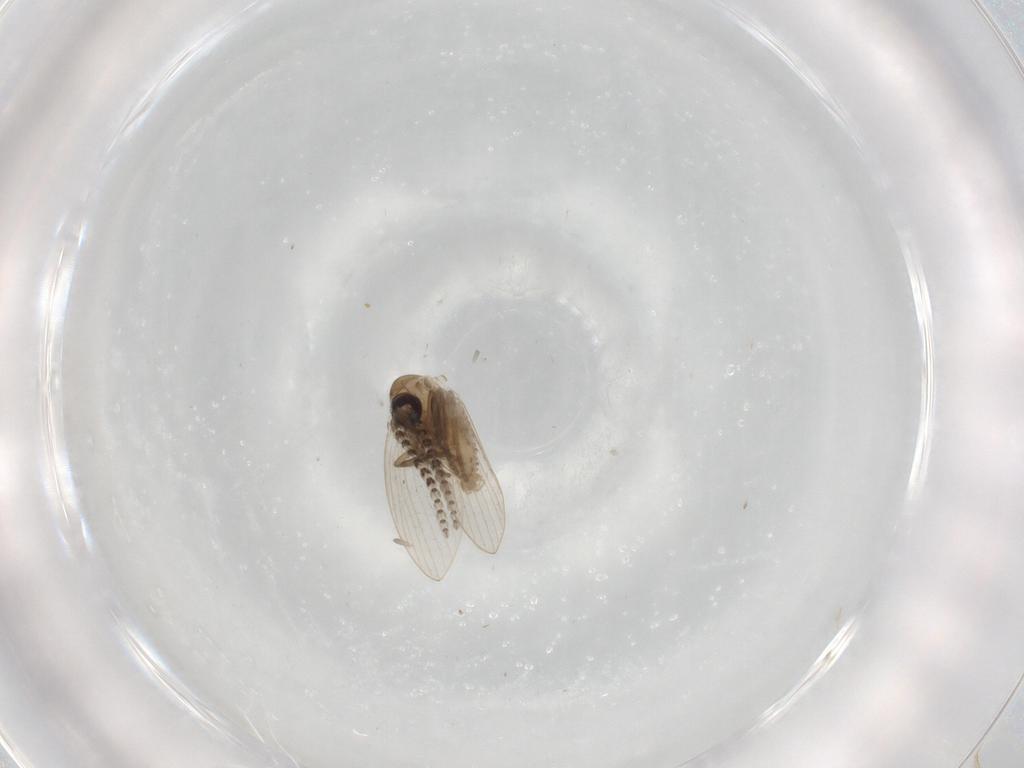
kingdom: Animalia
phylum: Arthropoda
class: Insecta
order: Diptera
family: Psychodidae
